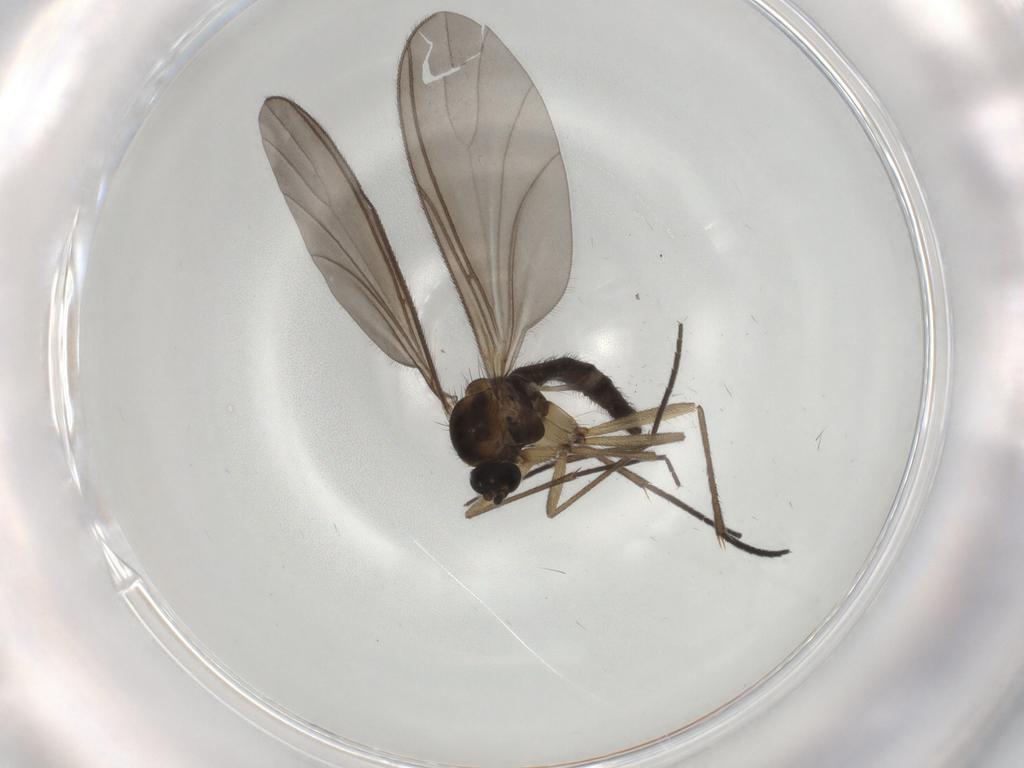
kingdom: Animalia
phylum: Arthropoda
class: Insecta
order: Diptera
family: Sciaridae
